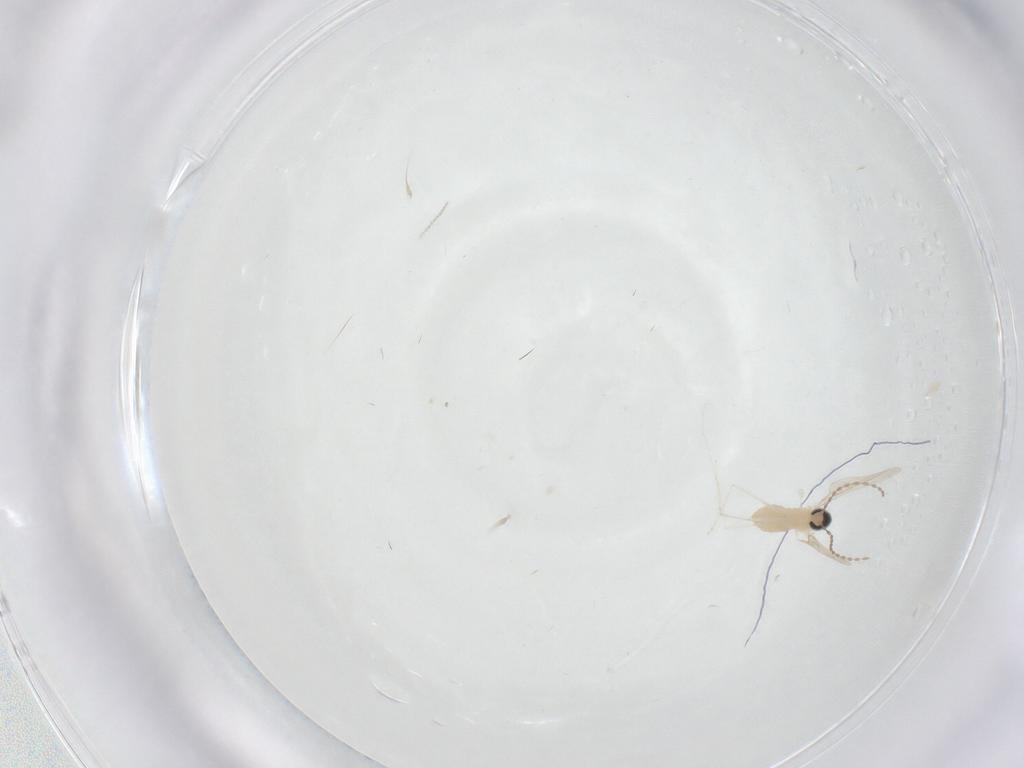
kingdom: Animalia
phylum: Arthropoda
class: Insecta
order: Diptera
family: Cecidomyiidae
